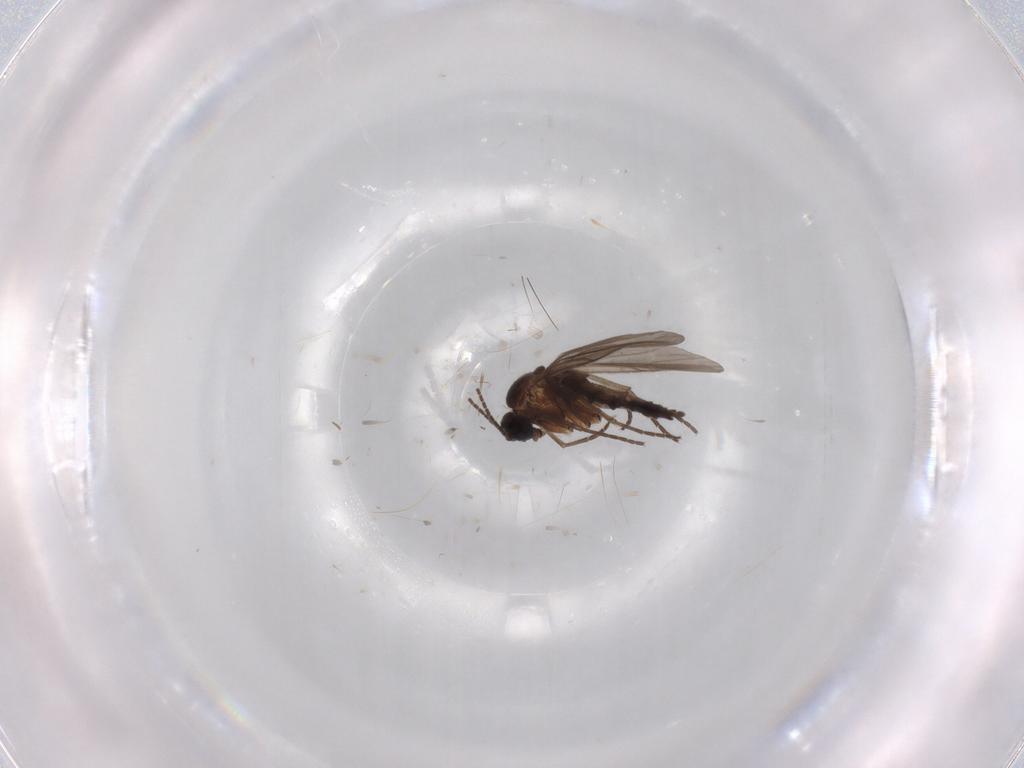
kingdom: Animalia
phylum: Arthropoda
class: Insecta
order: Diptera
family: Sciaridae
